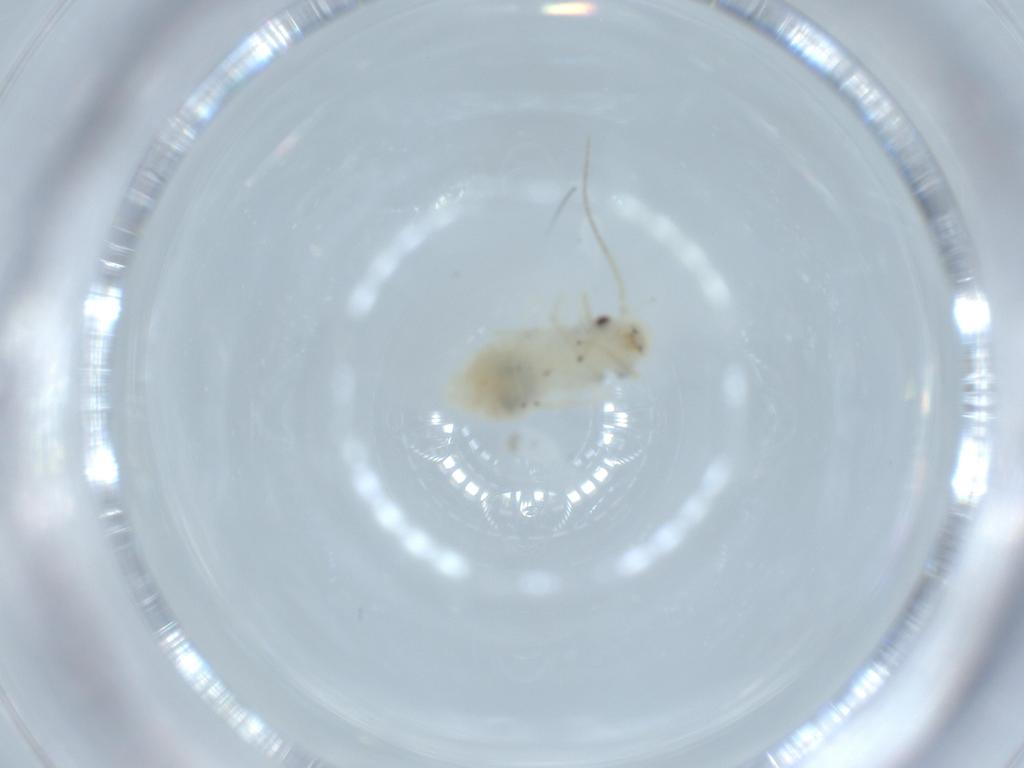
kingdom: Animalia
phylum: Arthropoda
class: Insecta
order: Psocodea
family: Caeciliusidae
